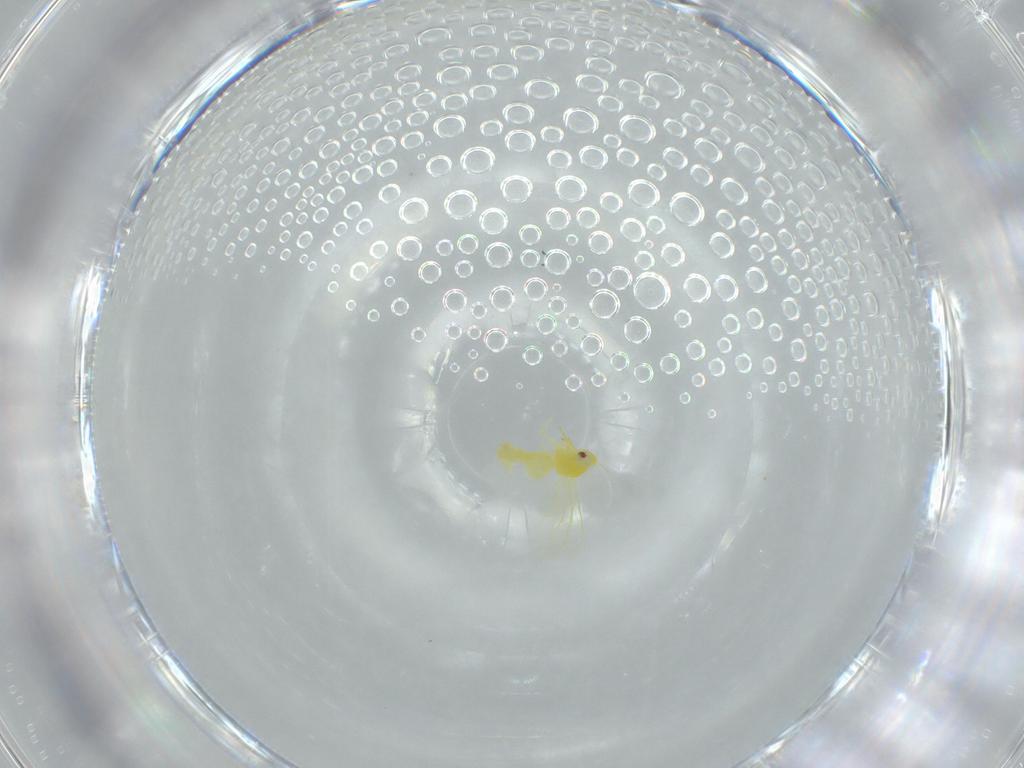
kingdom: Animalia
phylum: Arthropoda
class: Insecta
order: Hemiptera
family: Aleyrodidae
